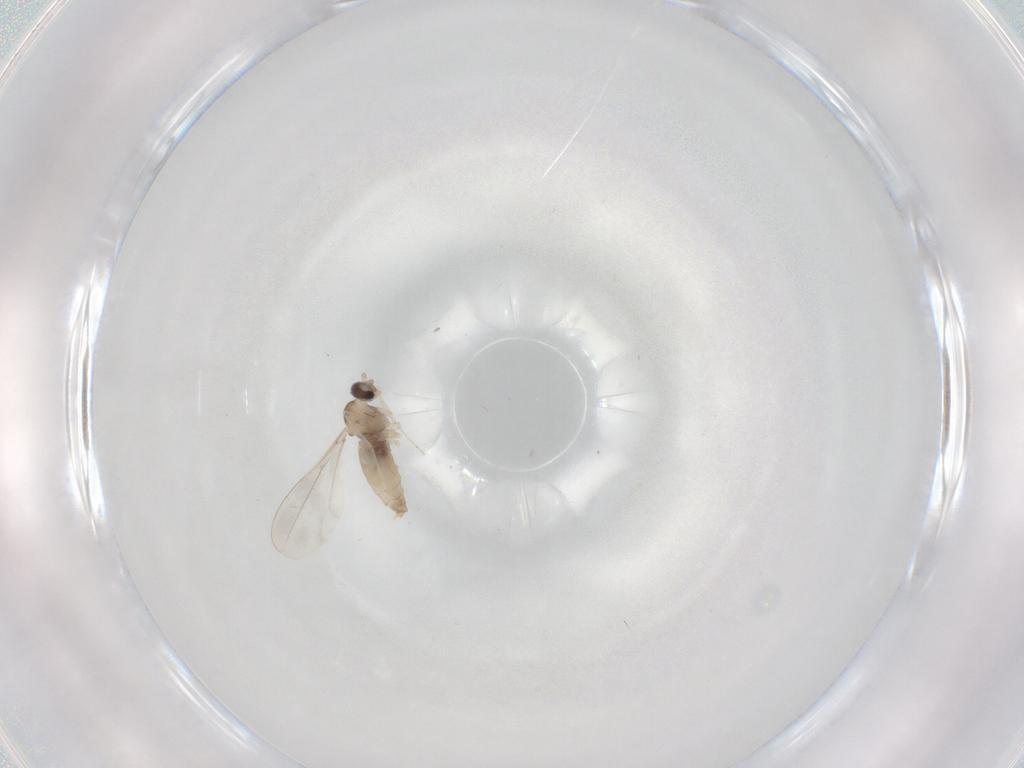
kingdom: Animalia
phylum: Arthropoda
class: Insecta
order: Diptera
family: Cecidomyiidae
